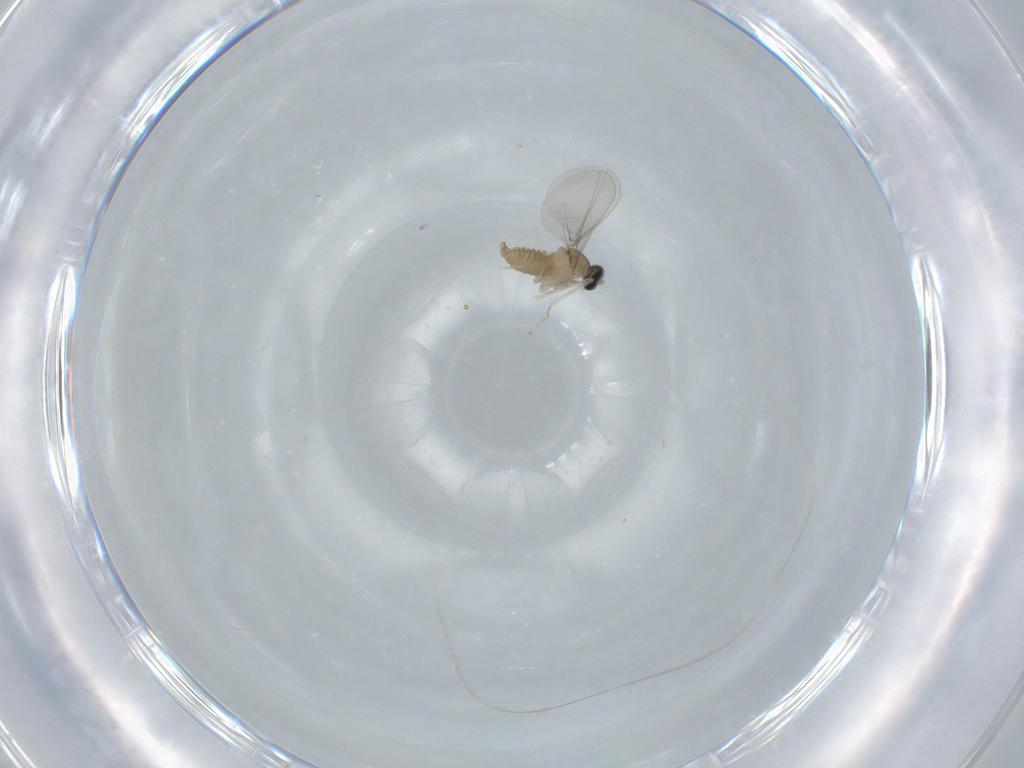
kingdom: Animalia
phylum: Arthropoda
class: Insecta
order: Diptera
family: Cecidomyiidae
